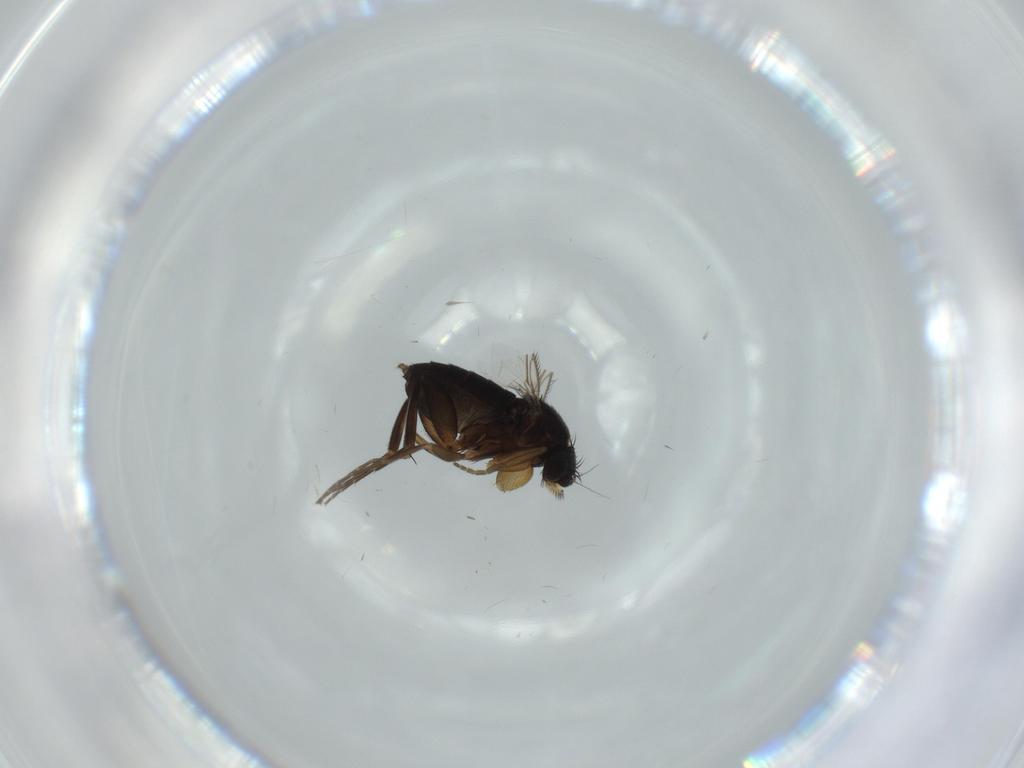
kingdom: Animalia
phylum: Arthropoda
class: Insecta
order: Diptera
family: Phoridae
